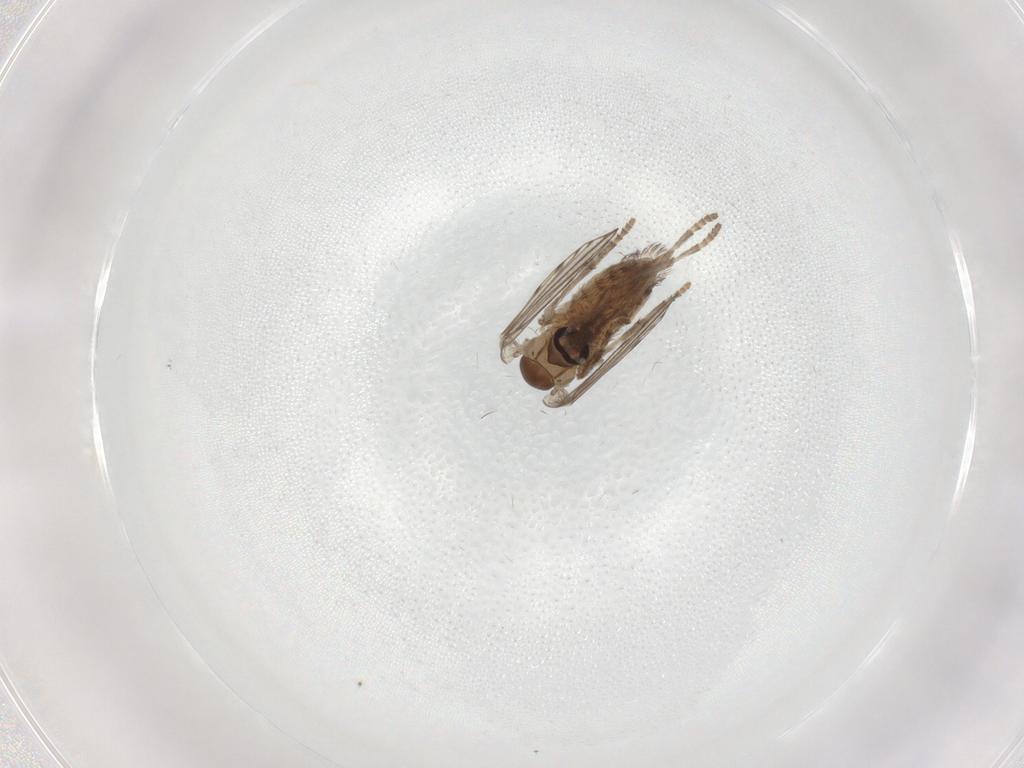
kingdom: Animalia
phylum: Arthropoda
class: Insecta
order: Diptera
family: Psychodidae
